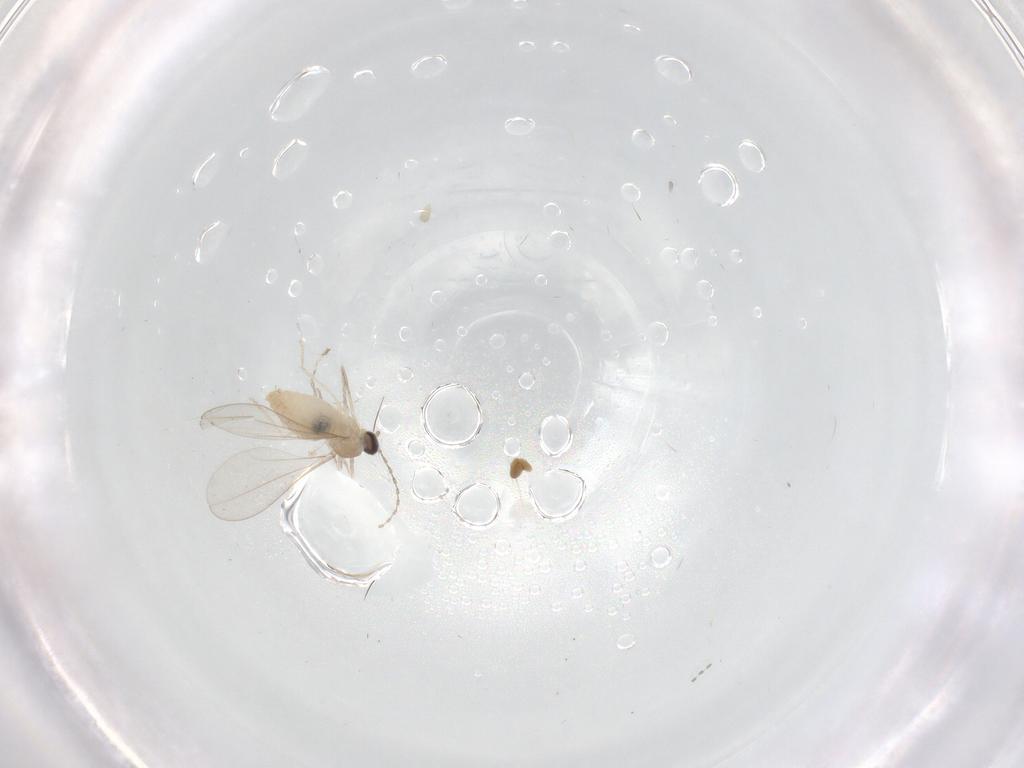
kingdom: Animalia
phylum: Arthropoda
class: Insecta
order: Diptera
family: Cecidomyiidae
